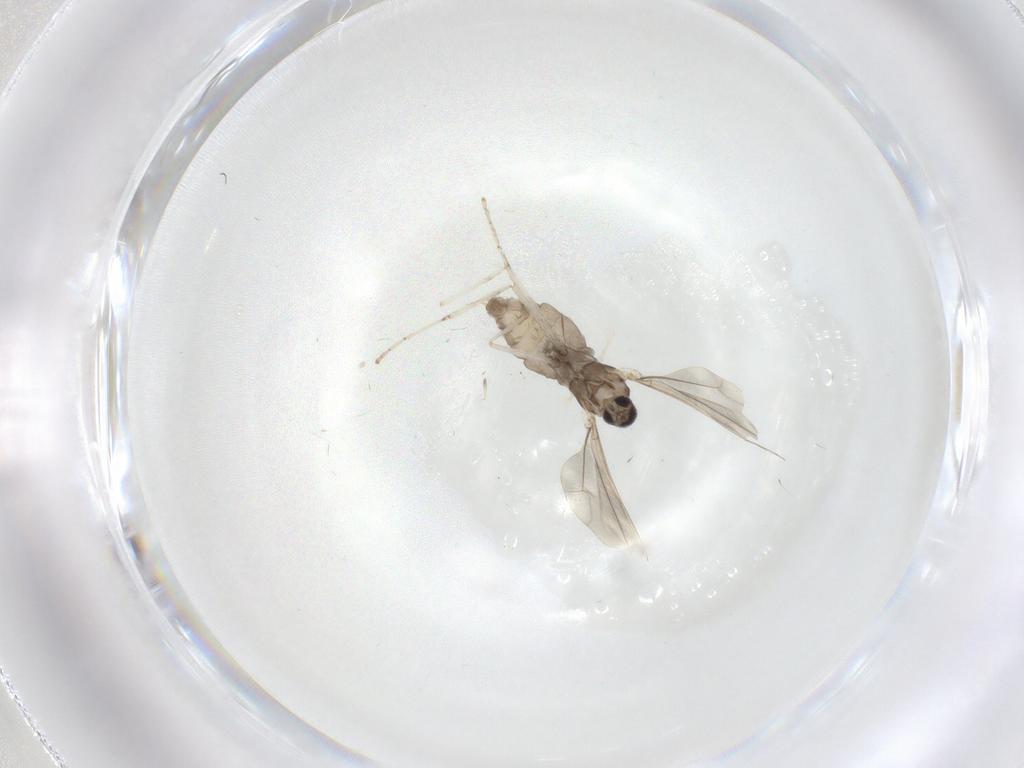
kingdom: Animalia
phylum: Arthropoda
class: Insecta
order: Diptera
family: Cecidomyiidae
